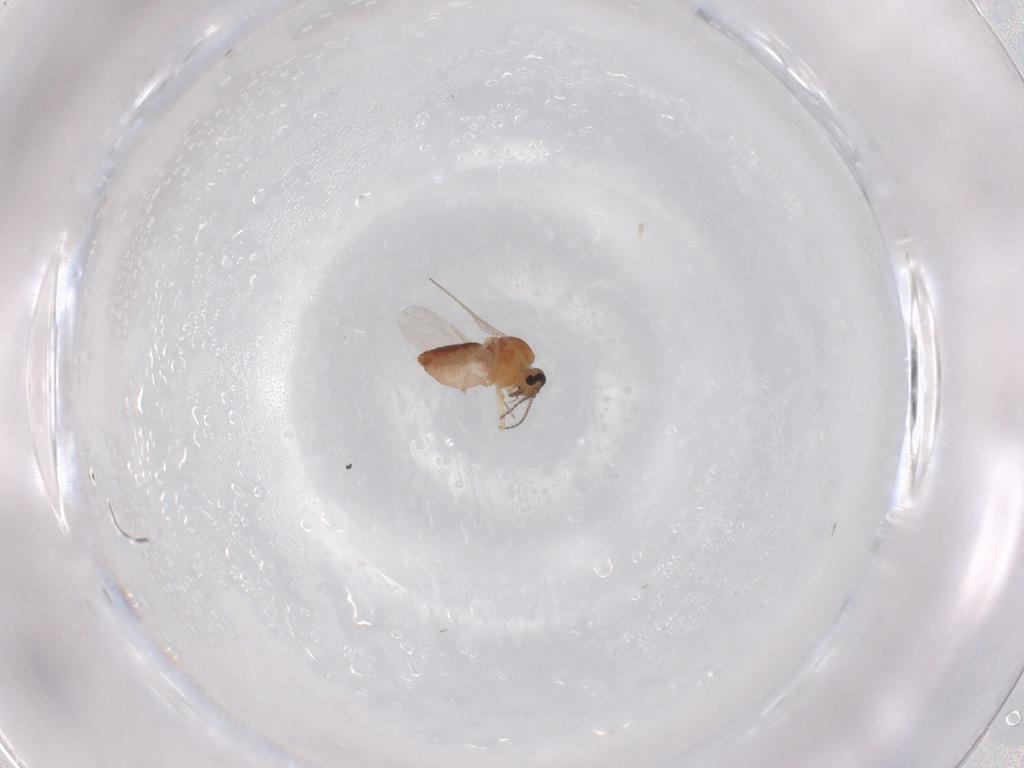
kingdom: Animalia
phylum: Arthropoda
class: Insecta
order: Diptera
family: Ceratopogonidae
